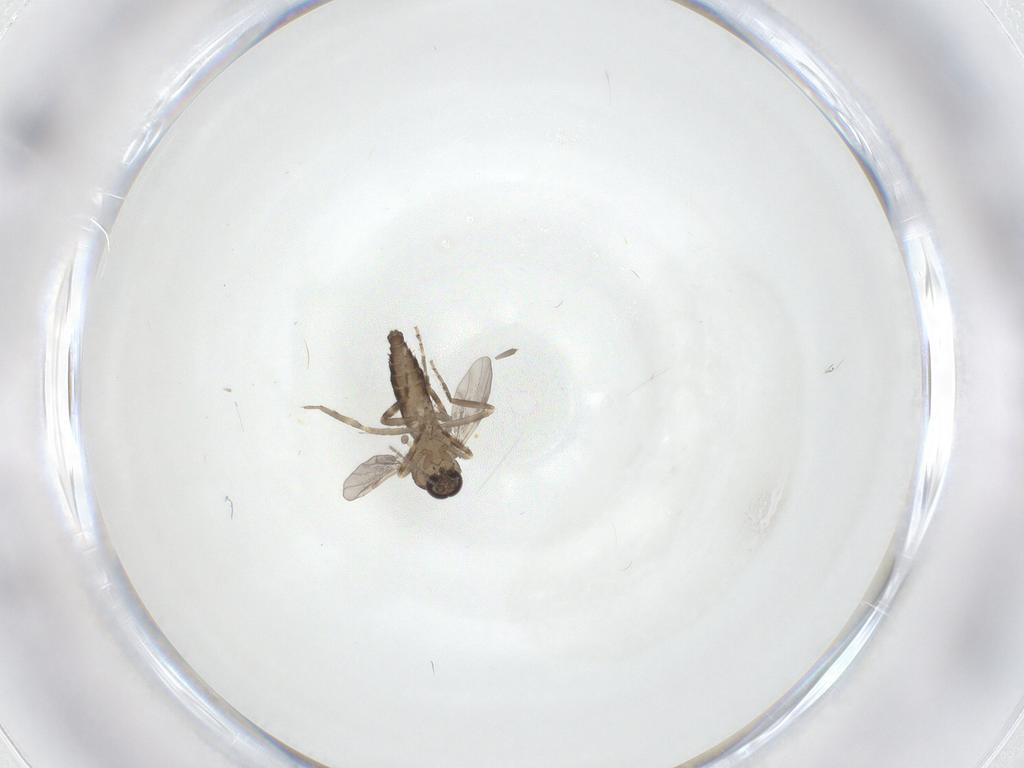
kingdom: Animalia
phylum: Arthropoda
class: Insecta
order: Diptera
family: Ceratopogonidae
